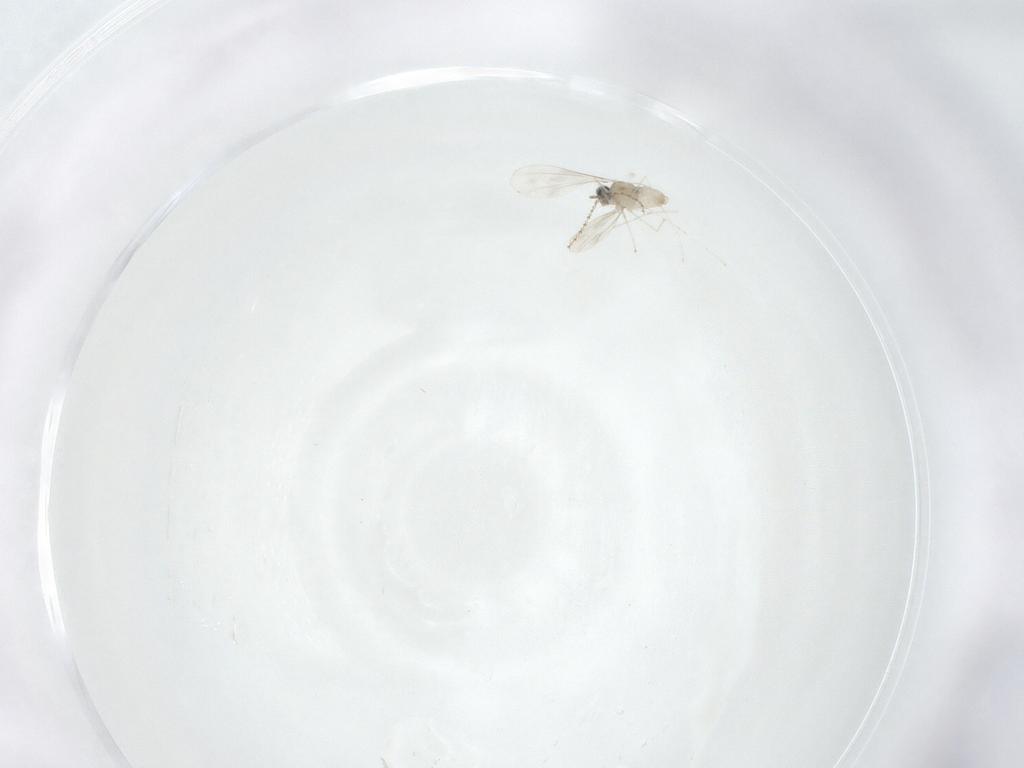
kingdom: Animalia
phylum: Arthropoda
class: Insecta
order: Diptera
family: Cecidomyiidae
